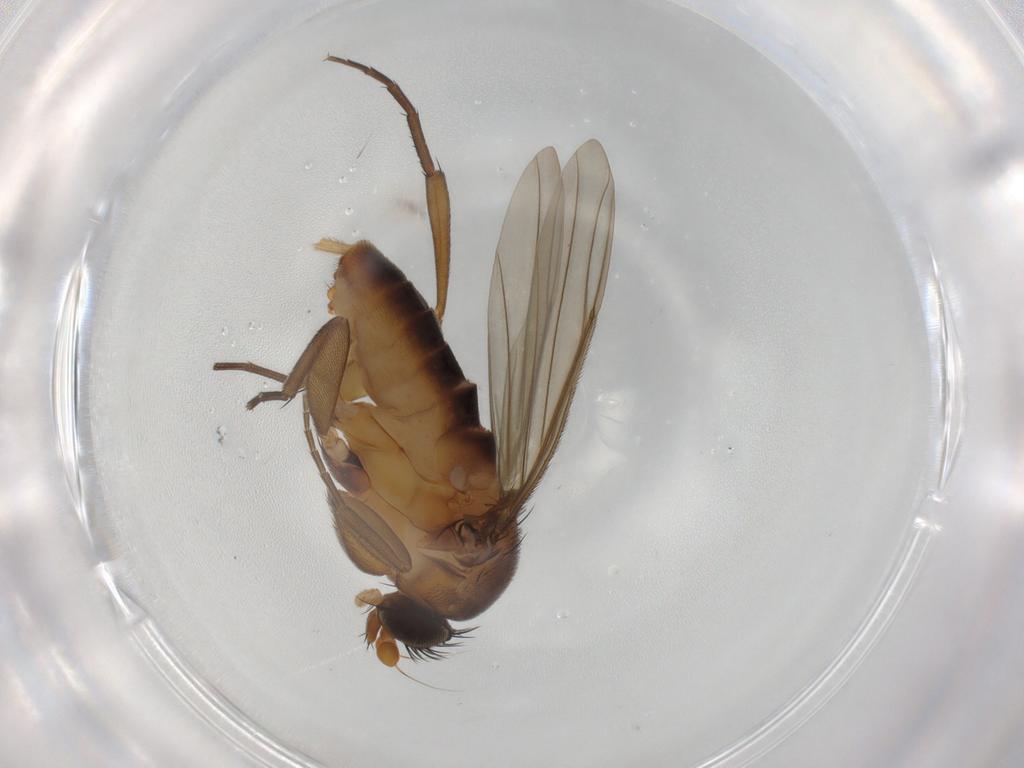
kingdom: Animalia
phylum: Arthropoda
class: Insecta
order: Diptera
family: Phoridae
